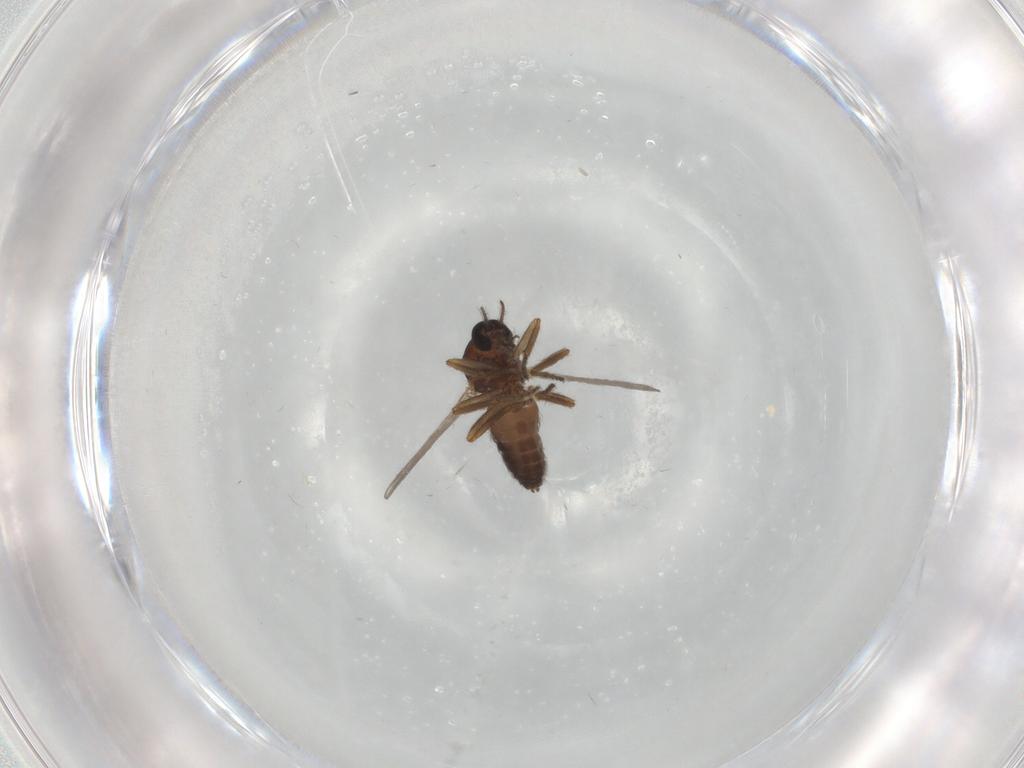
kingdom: Animalia
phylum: Arthropoda
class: Insecta
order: Diptera
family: Ceratopogonidae
